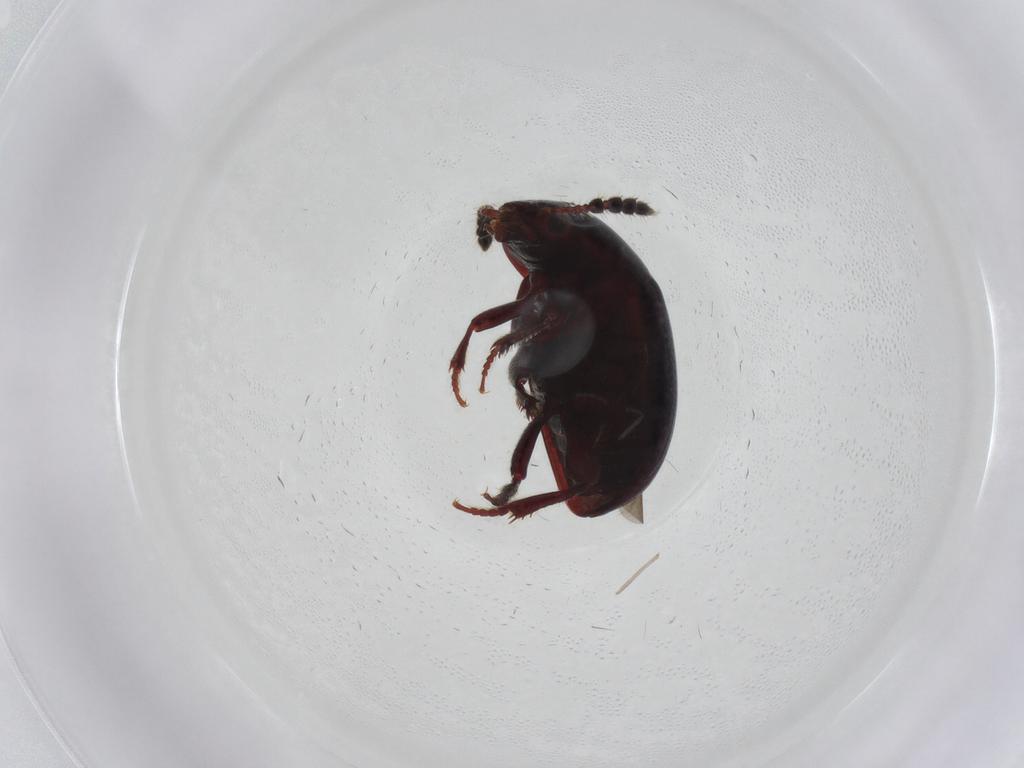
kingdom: Animalia
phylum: Arthropoda
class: Insecta
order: Coleoptera
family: Leiodidae
